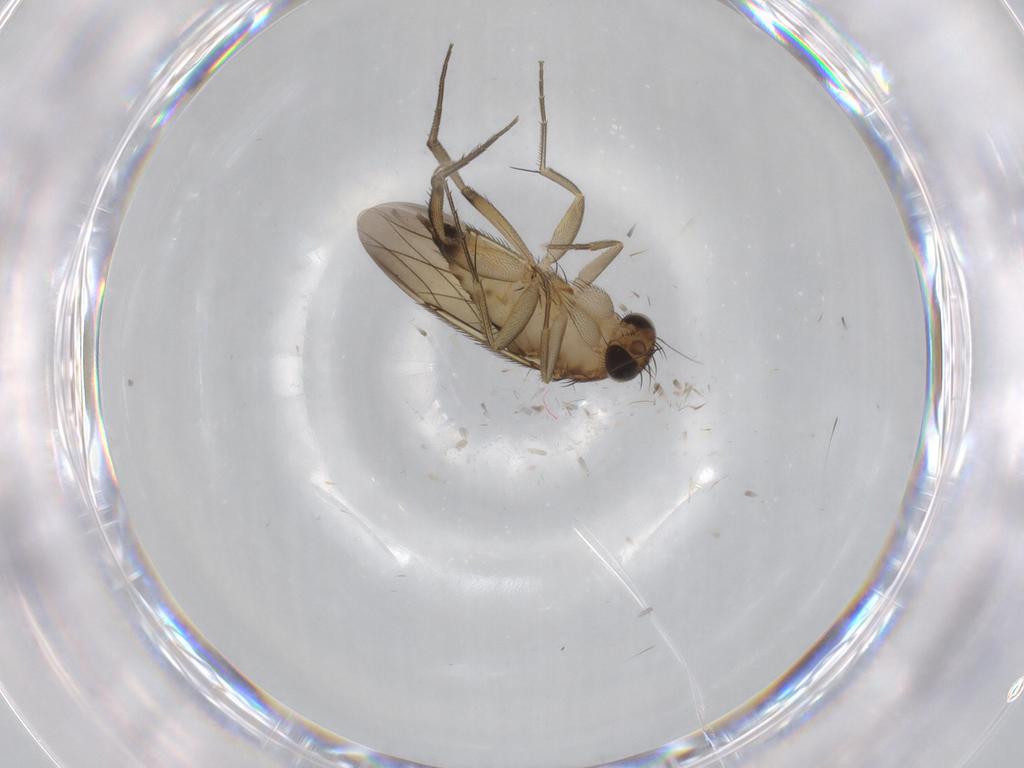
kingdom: Animalia
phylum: Arthropoda
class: Insecta
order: Diptera
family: Phoridae
